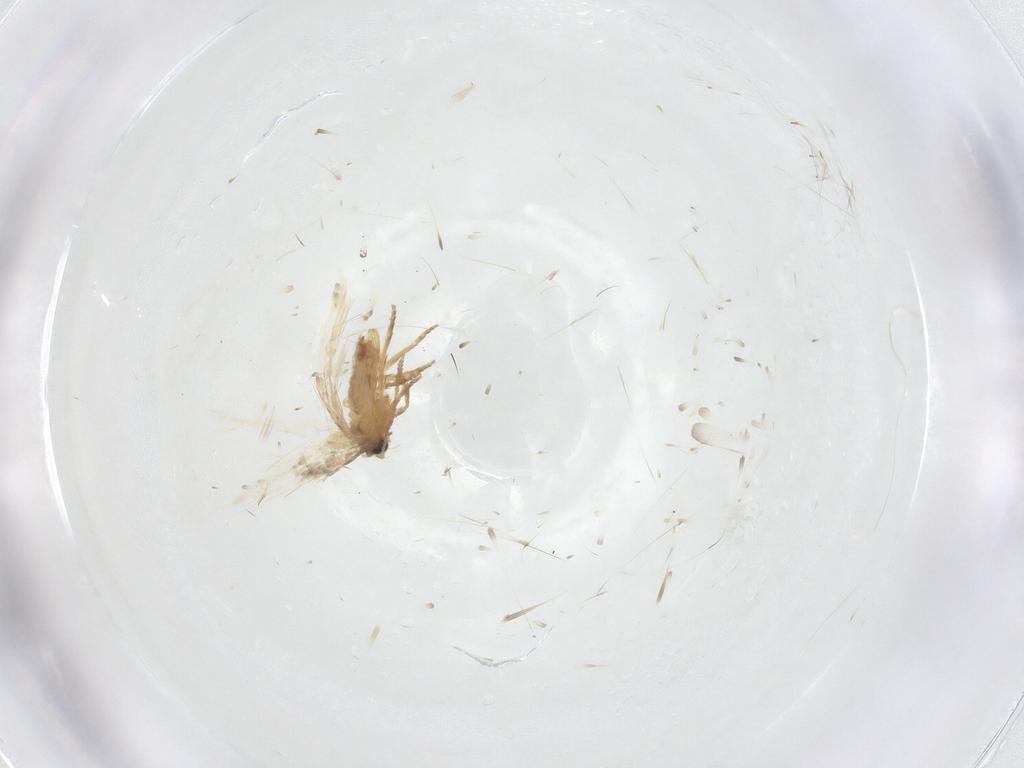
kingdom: Animalia
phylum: Arthropoda
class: Insecta
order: Lepidoptera
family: Nepticulidae
